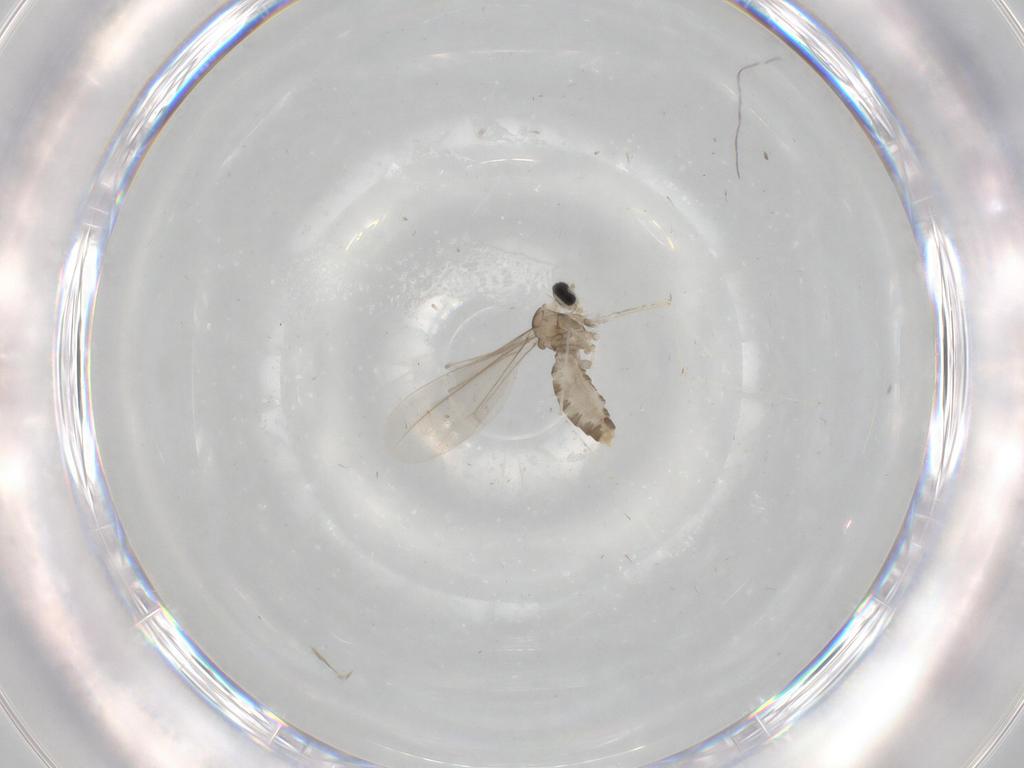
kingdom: Animalia
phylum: Arthropoda
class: Insecta
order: Diptera
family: Cecidomyiidae
